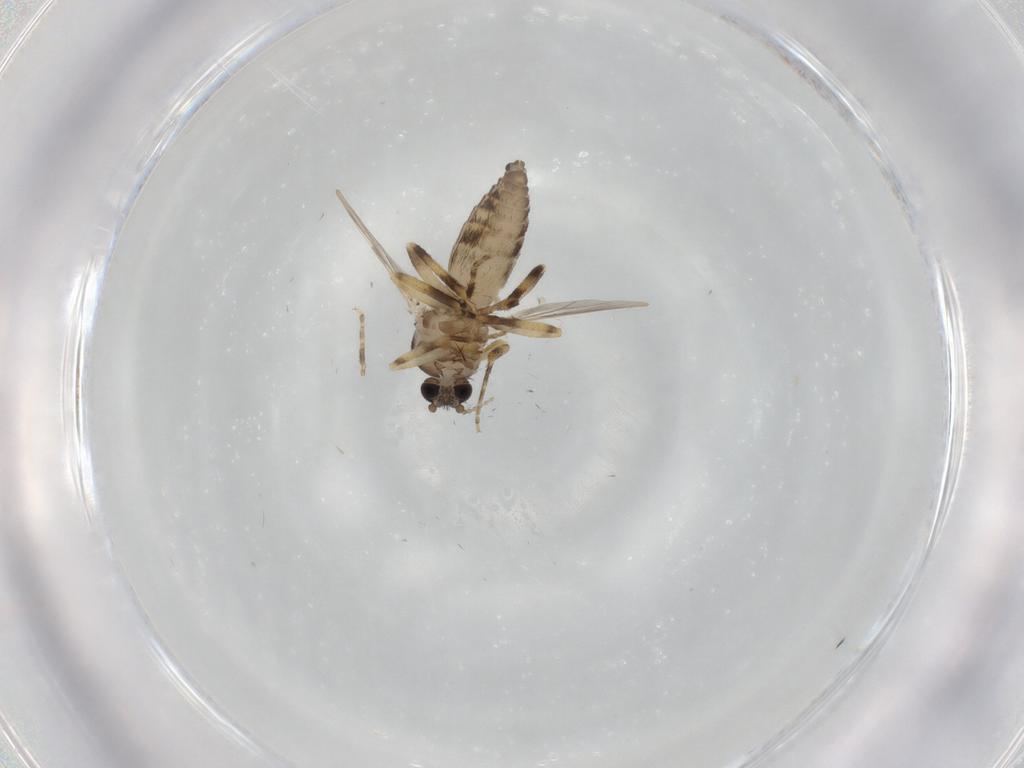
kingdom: Animalia
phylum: Arthropoda
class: Insecta
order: Diptera
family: Ceratopogonidae
